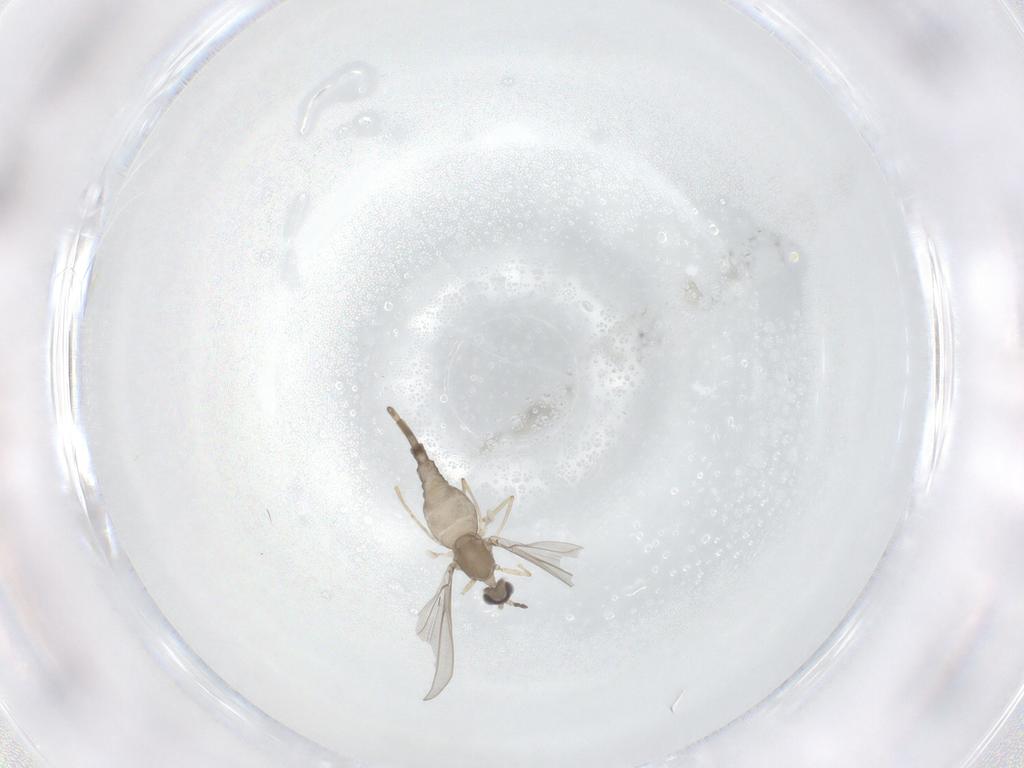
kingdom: Animalia
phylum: Arthropoda
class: Insecta
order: Diptera
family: Cecidomyiidae
